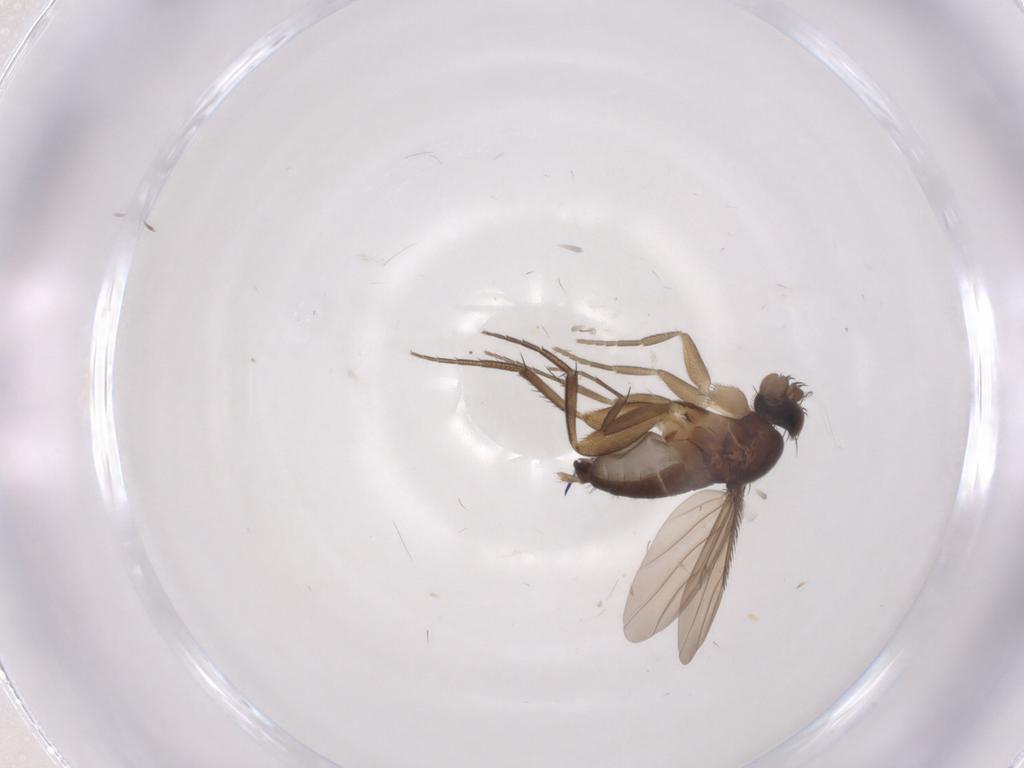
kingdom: Animalia
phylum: Arthropoda
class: Insecta
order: Diptera
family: Phoridae
